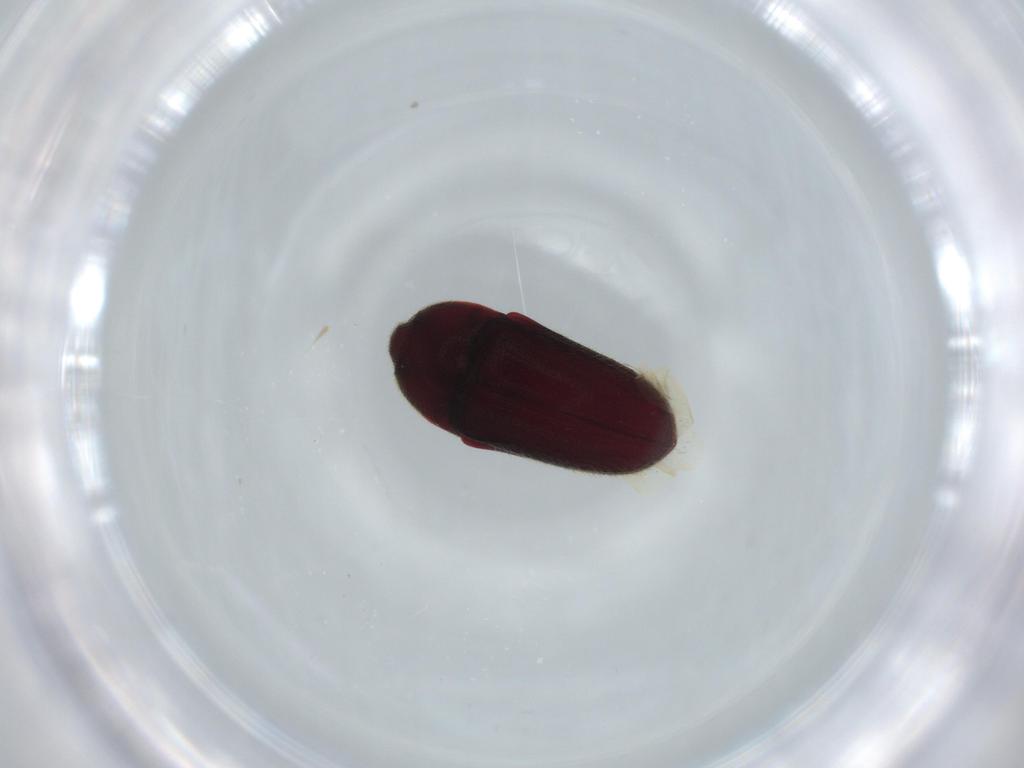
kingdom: Animalia
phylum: Arthropoda
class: Insecta
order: Coleoptera
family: Throscidae
